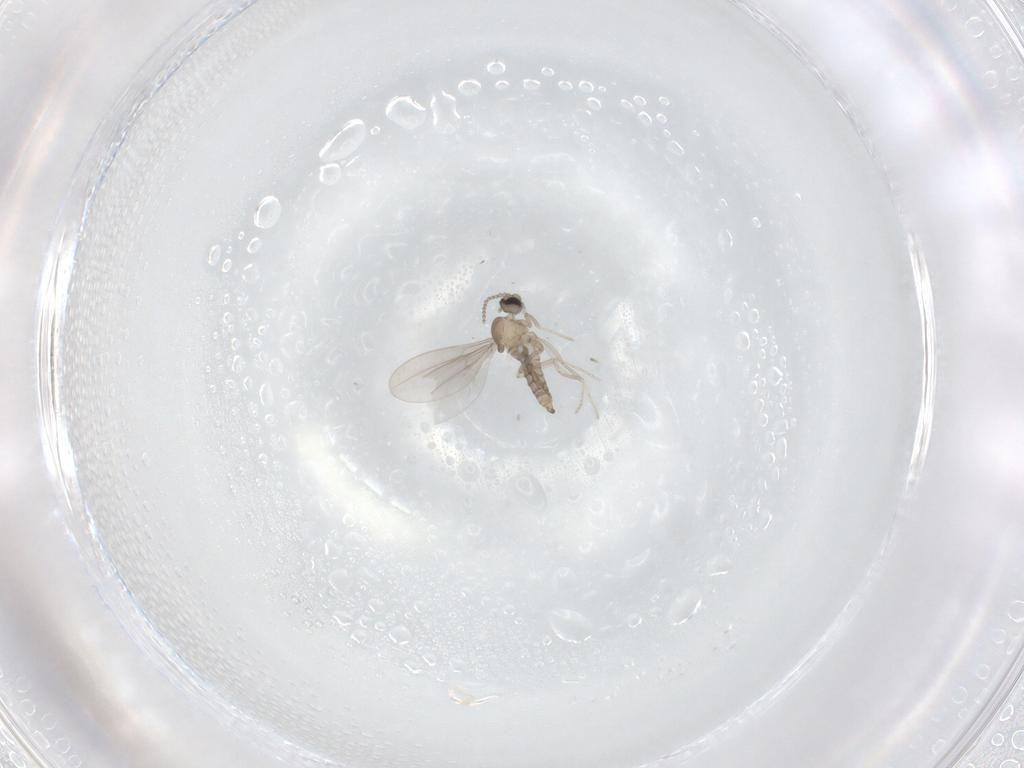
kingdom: Animalia
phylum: Arthropoda
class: Insecta
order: Diptera
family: Cecidomyiidae
